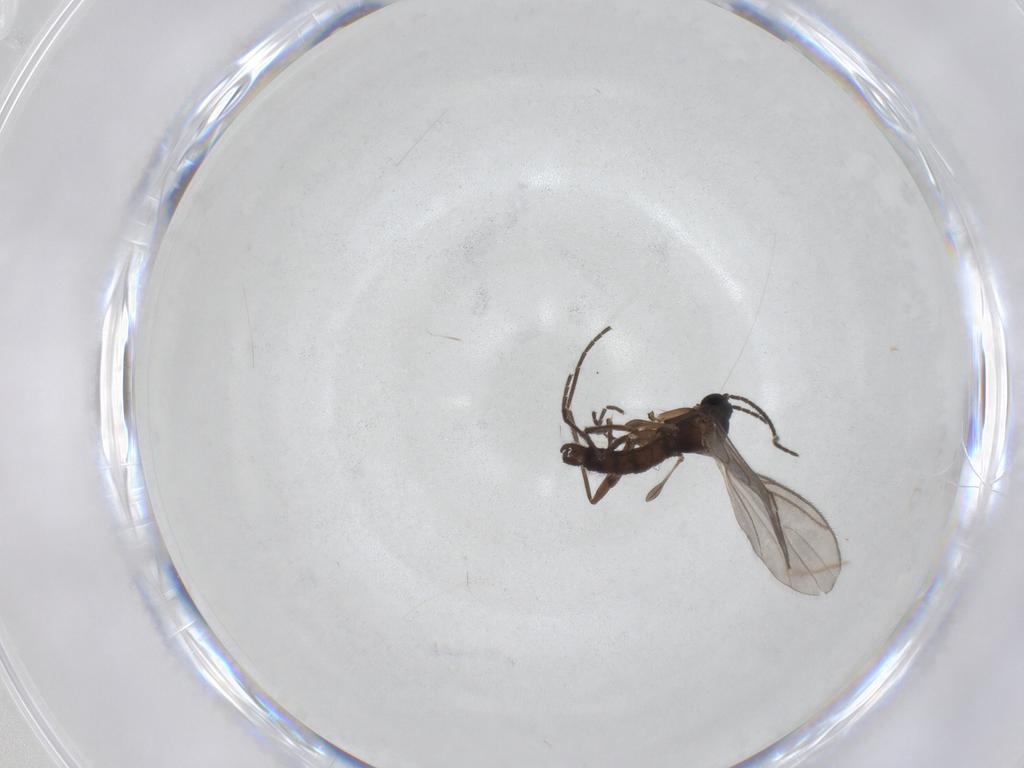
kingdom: Animalia
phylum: Arthropoda
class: Insecta
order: Diptera
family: Sciaridae
